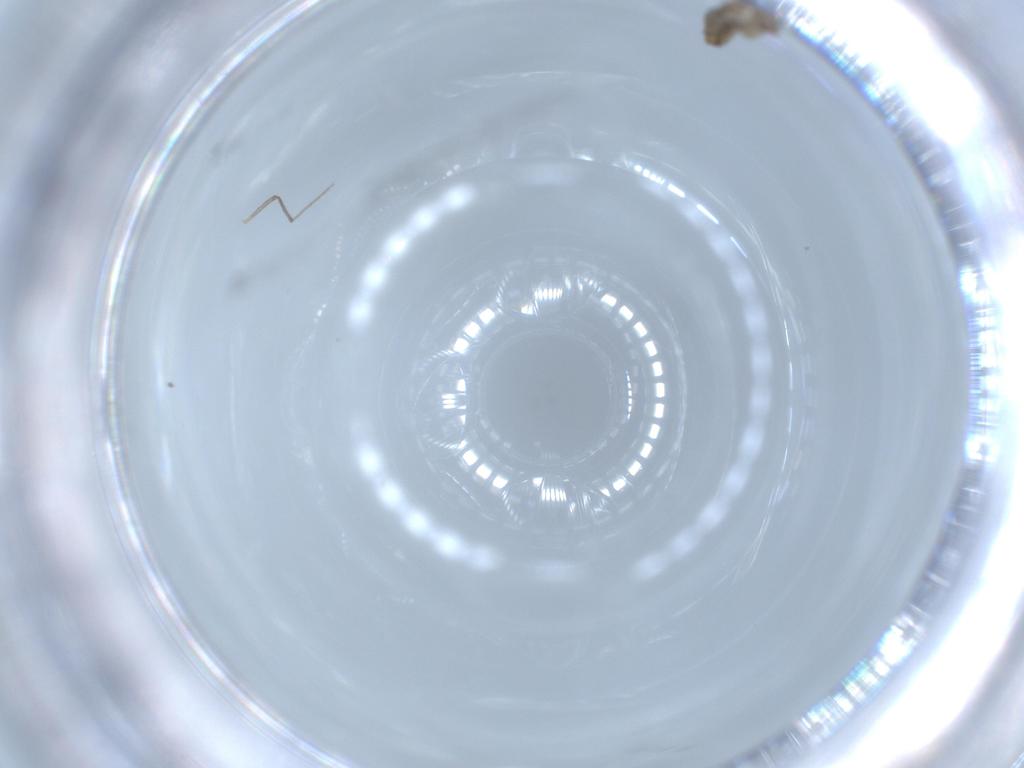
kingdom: Animalia
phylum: Arthropoda
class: Insecta
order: Diptera
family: Chironomidae
